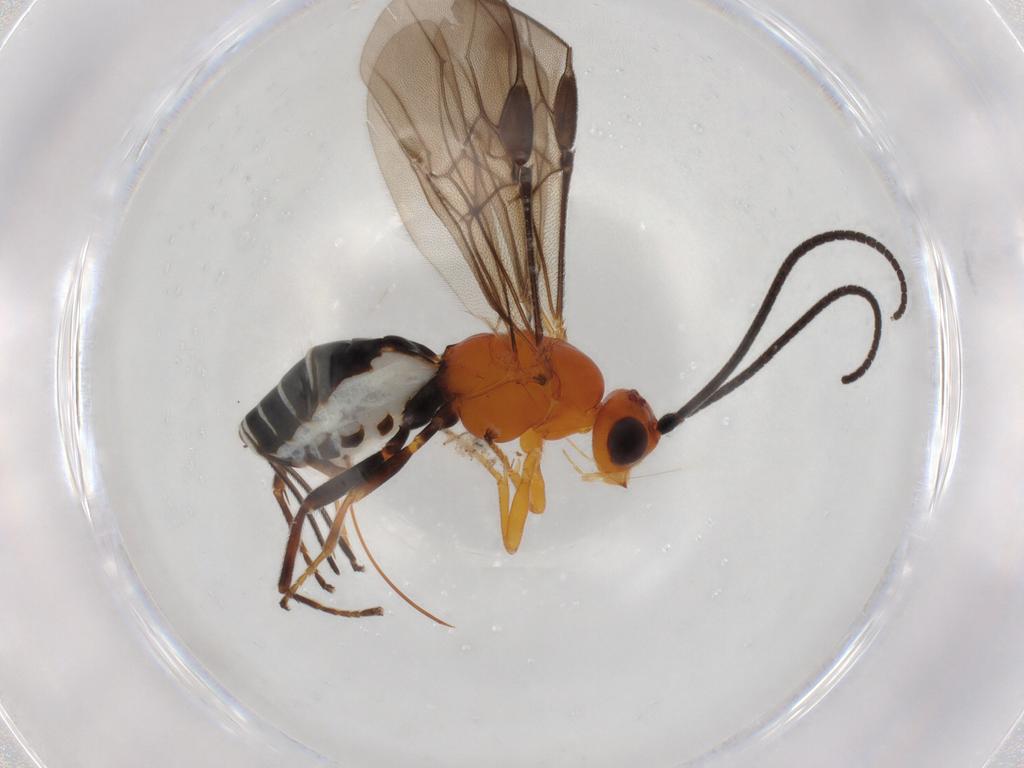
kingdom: Animalia
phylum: Arthropoda
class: Insecta
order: Hymenoptera
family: Braconidae
